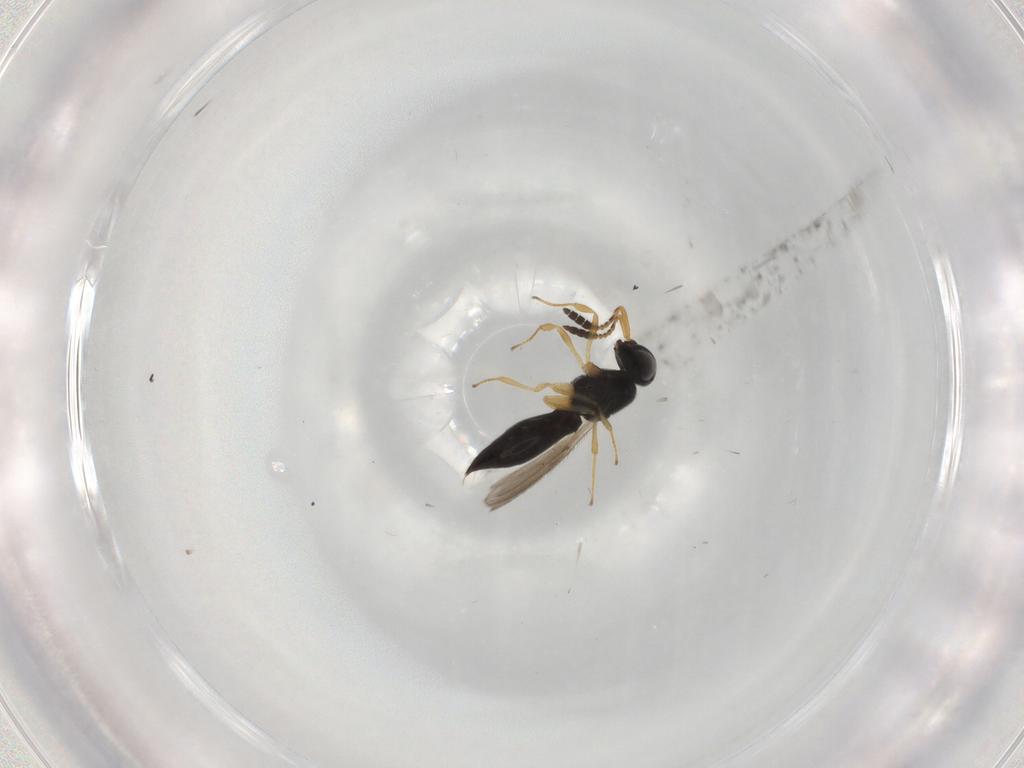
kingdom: Animalia
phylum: Arthropoda
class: Insecta
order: Hymenoptera
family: Scelionidae
